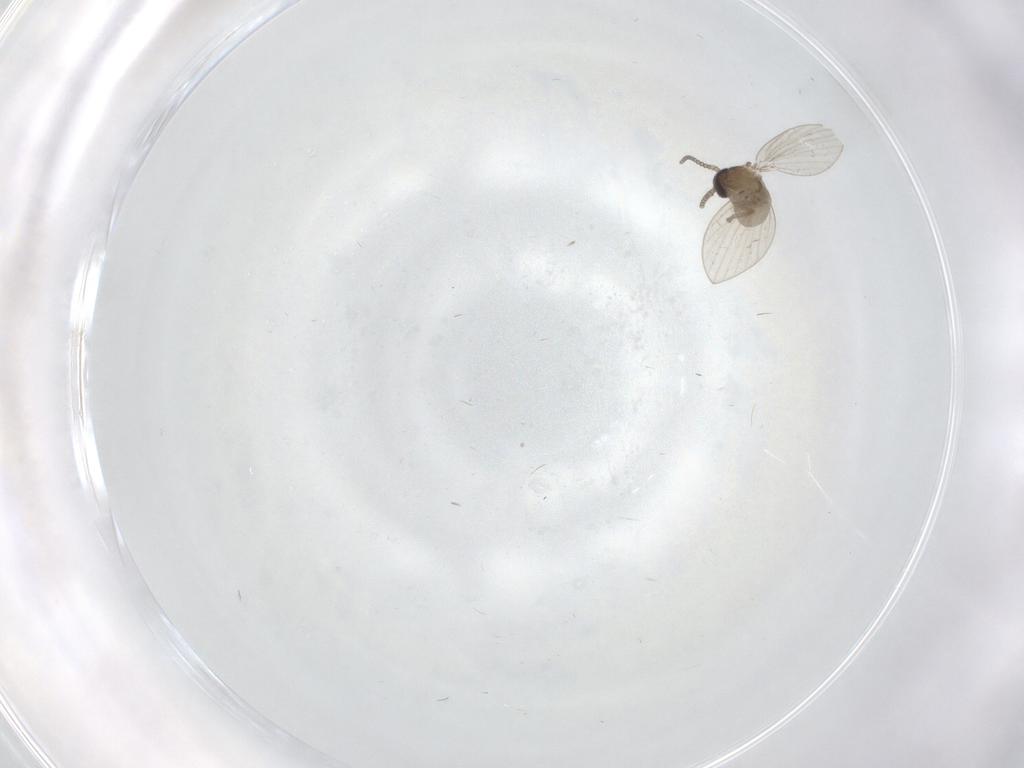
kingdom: Animalia
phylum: Arthropoda
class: Insecta
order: Diptera
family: Psychodidae
